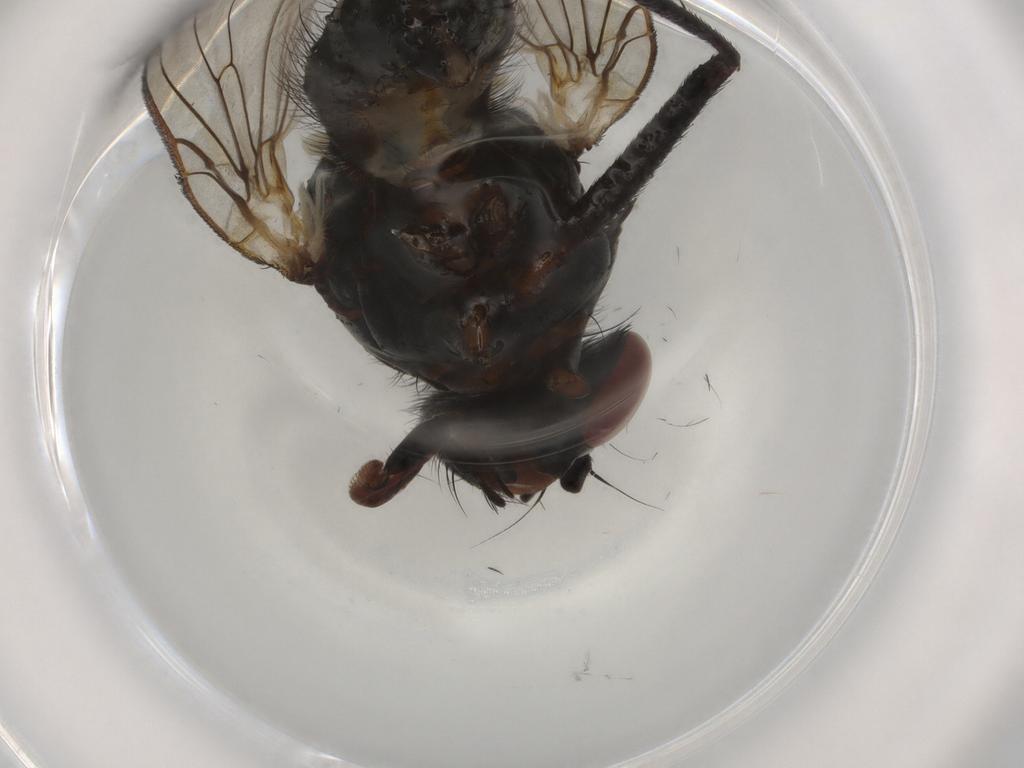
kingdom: Animalia
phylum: Arthropoda
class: Insecta
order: Diptera
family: Anthomyiidae
